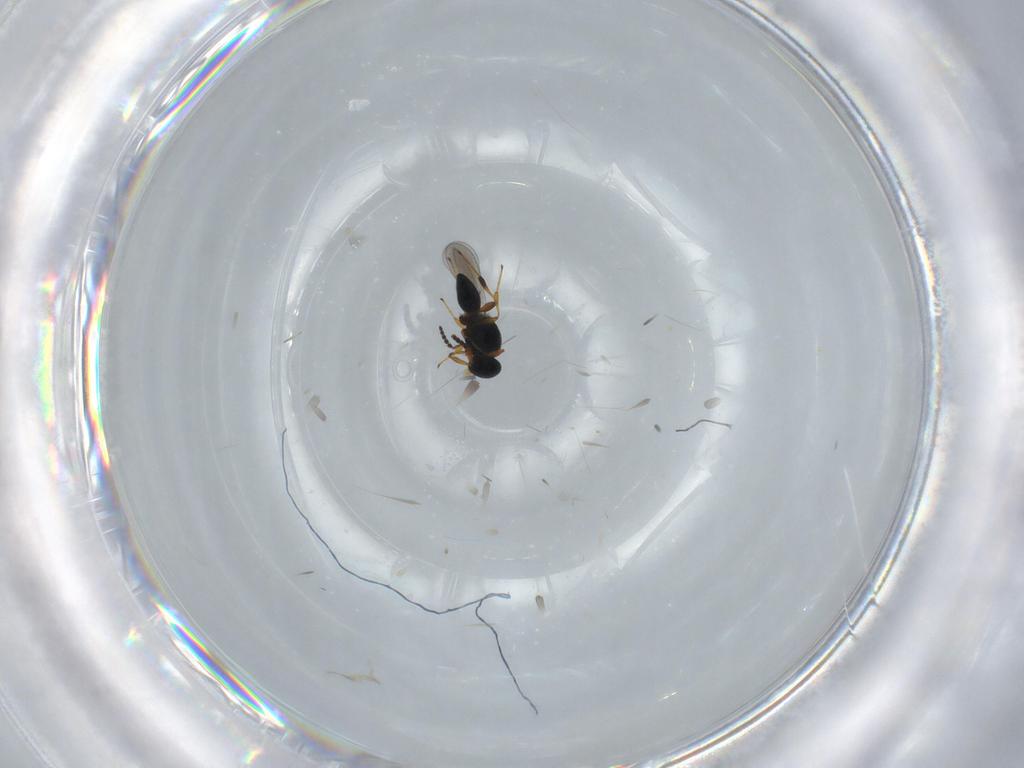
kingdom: Animalia
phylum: Arthropoda
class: Insecta
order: Hymenoptera
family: Platygastridae
